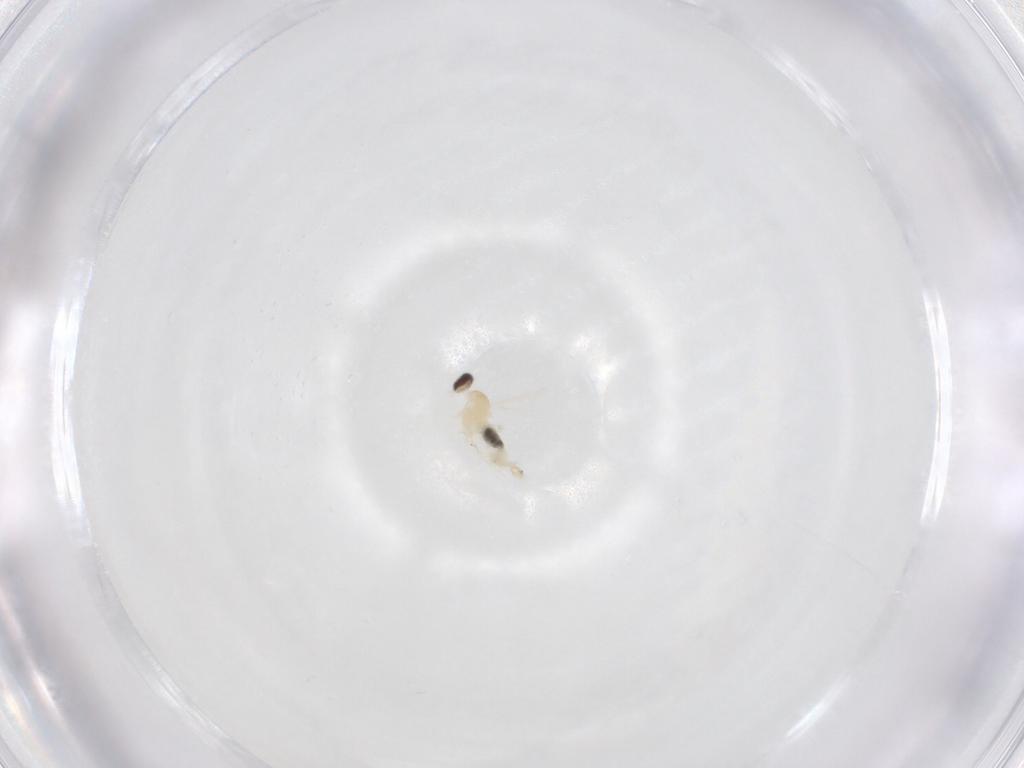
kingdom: Animalia
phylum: Arthropoda
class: Insecta
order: Diptera
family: Cecidomyiidae
